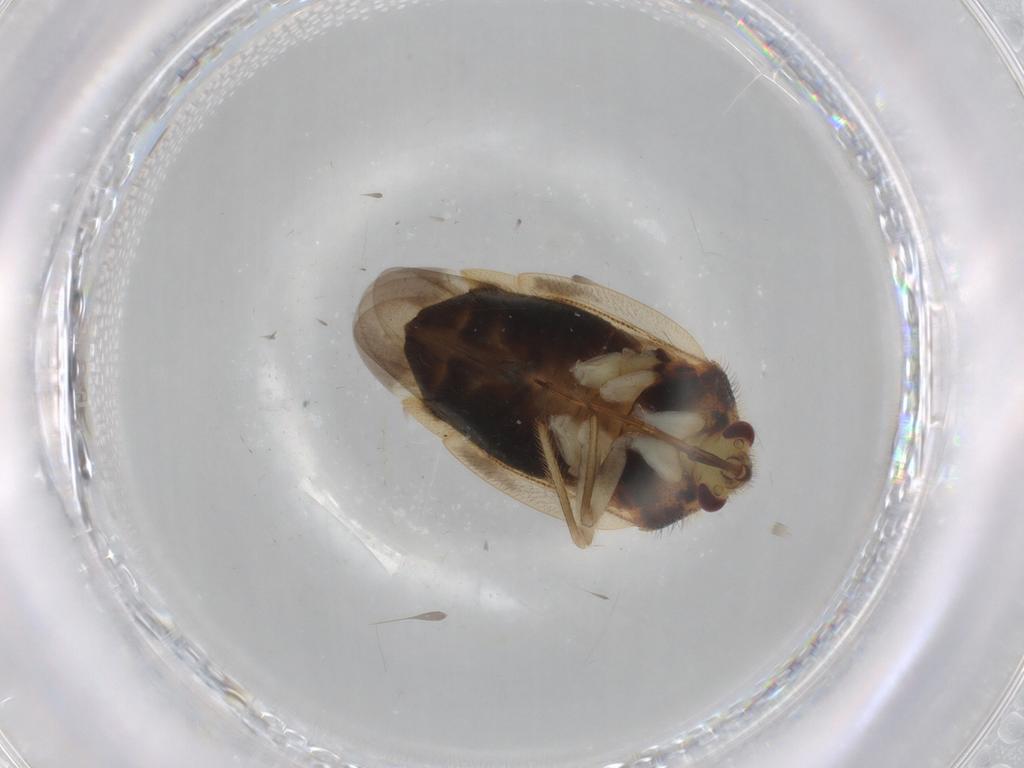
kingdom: Animalia
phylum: Arthropoda
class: Insecta
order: Hemiptera
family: Miridae
